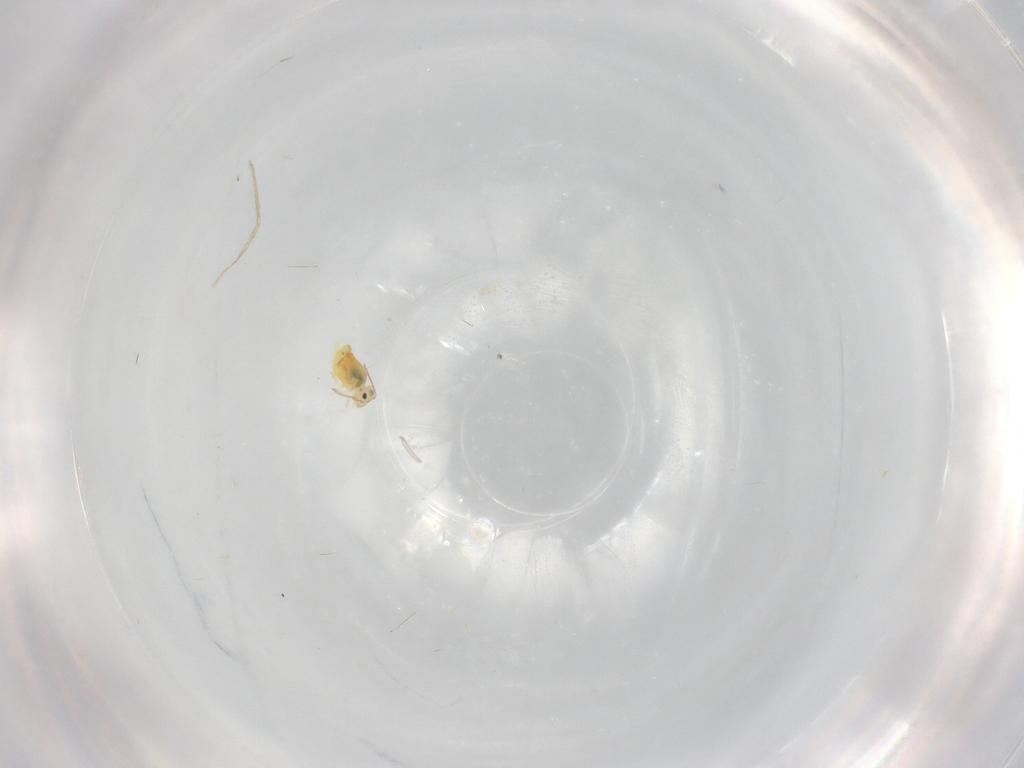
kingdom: Animalia
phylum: Arthropoda
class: Collembola
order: Symphypleona
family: Bourletiellidae
